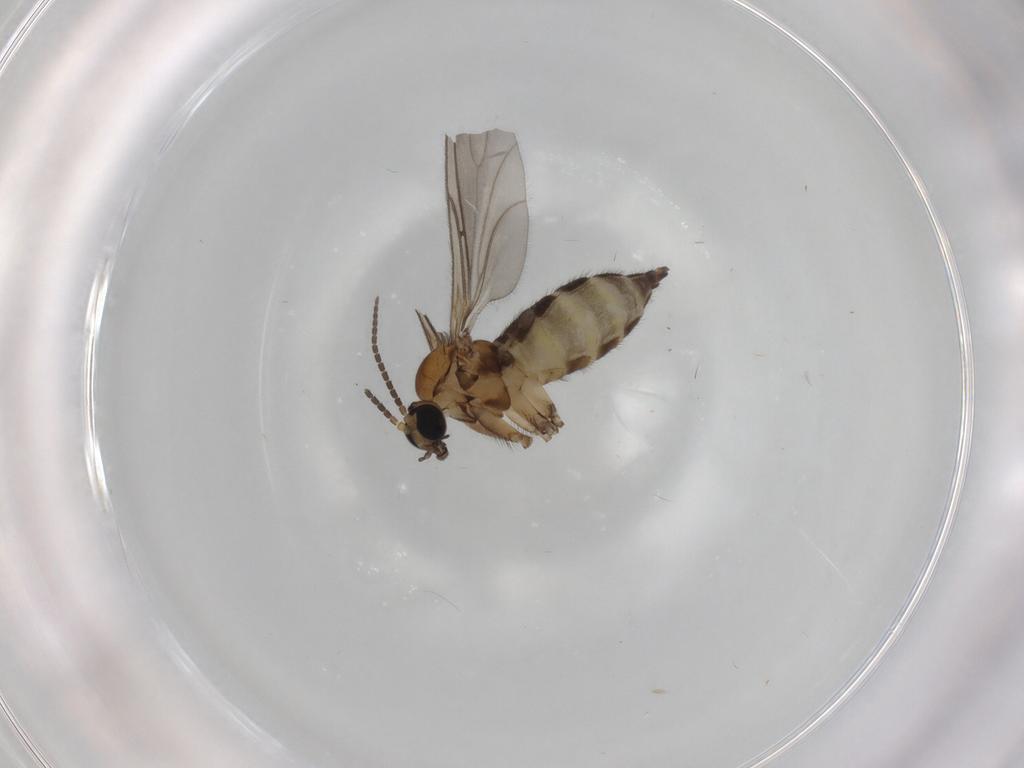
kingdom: Animalia
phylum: Arthropoda
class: Insecta
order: Diptera
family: Sciaridae
